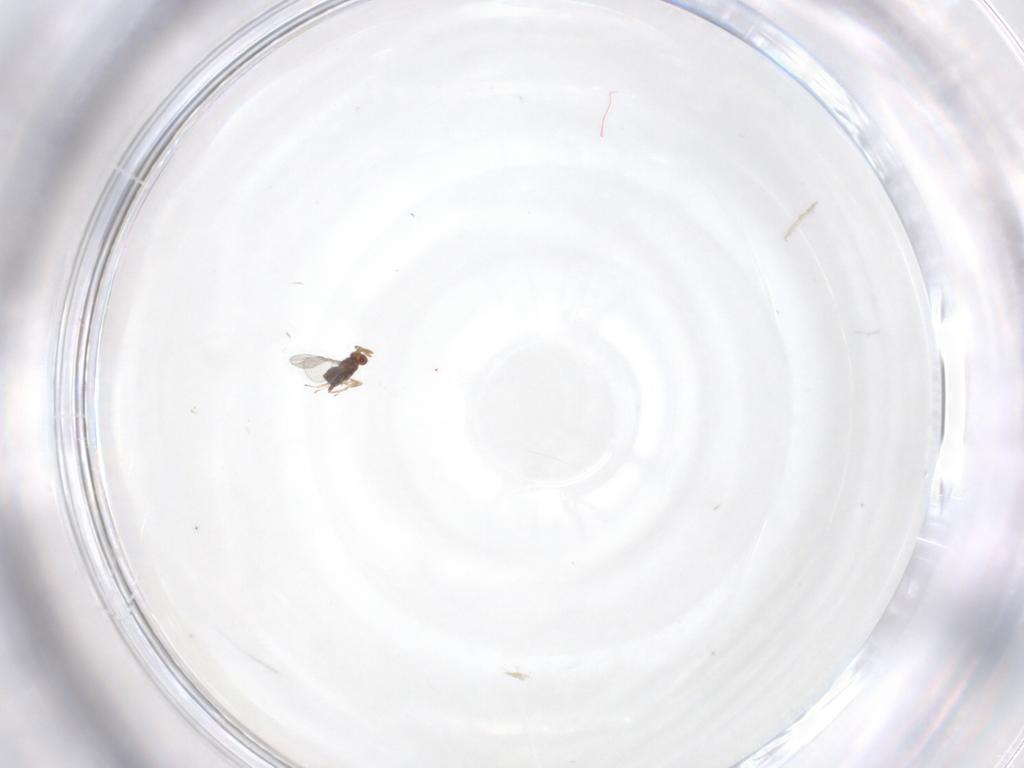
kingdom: Animalia
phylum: Arthropoda
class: Insecta
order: Hymenoptera
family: Trichogrammatidae
